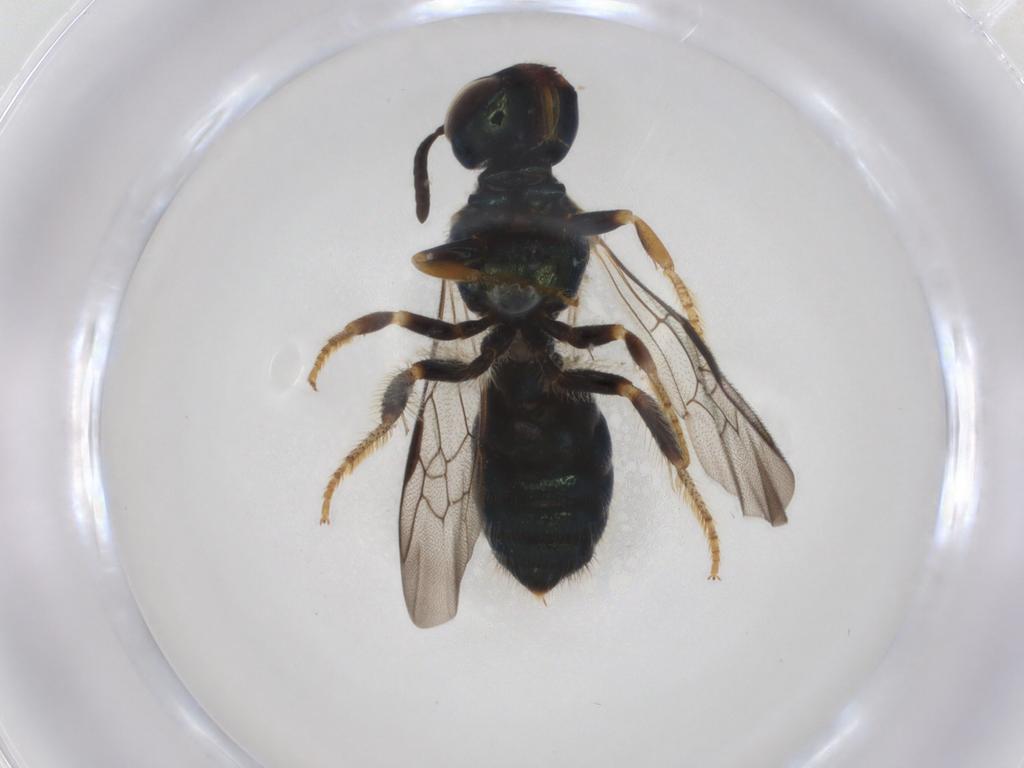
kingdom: Animalia
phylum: Arthropoda
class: Insecta
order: Hymenoptera
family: Apidae
